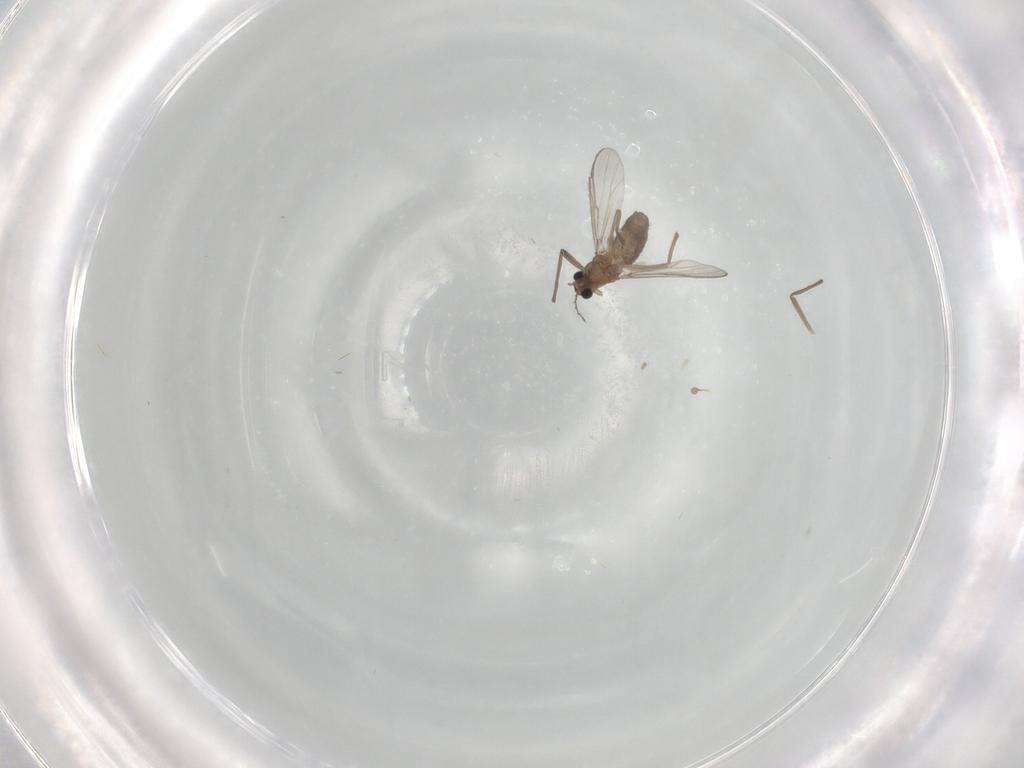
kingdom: Animalia
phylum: Arthropoda
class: Insecta
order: Diptera
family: Chironomidae
